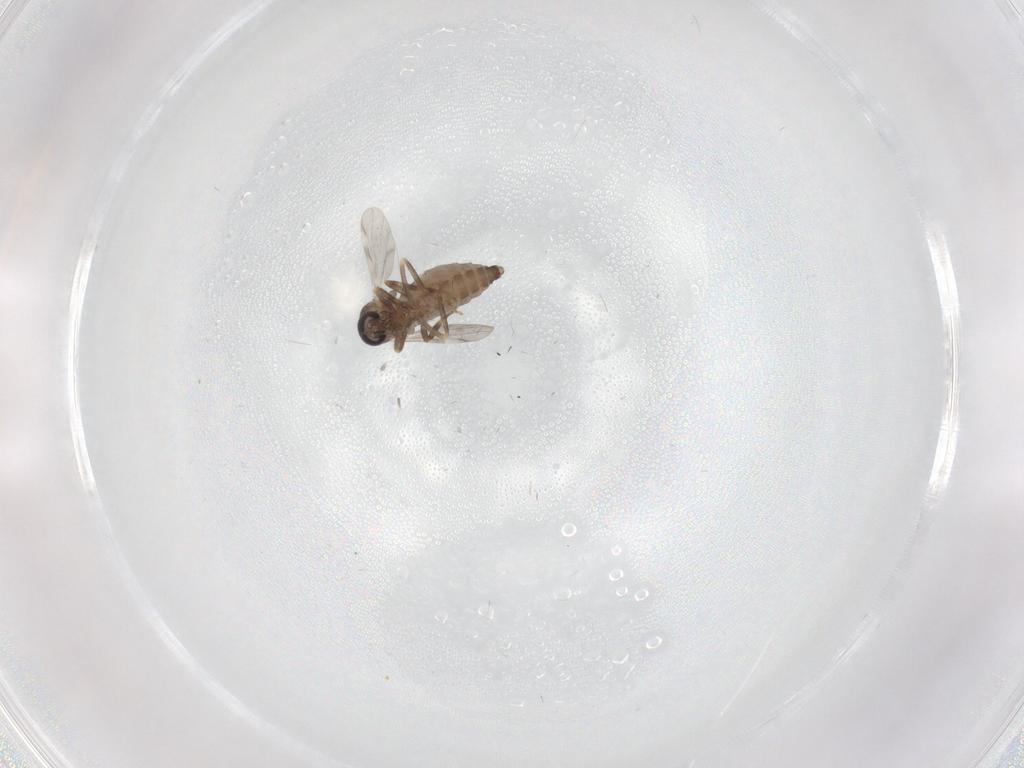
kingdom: Animalia
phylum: Arthropoda
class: Insecta
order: Diptera
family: Ceratopogonidae
